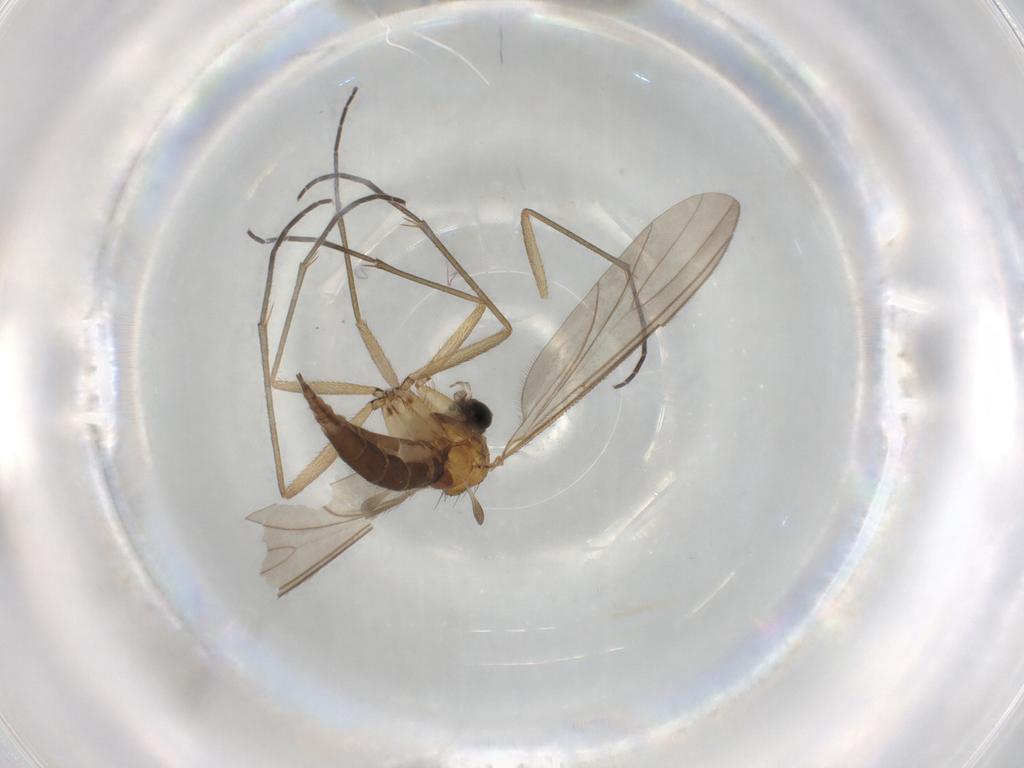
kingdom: Animalia
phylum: Arthropoda
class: Insecta
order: Diptera
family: Sciaridae
